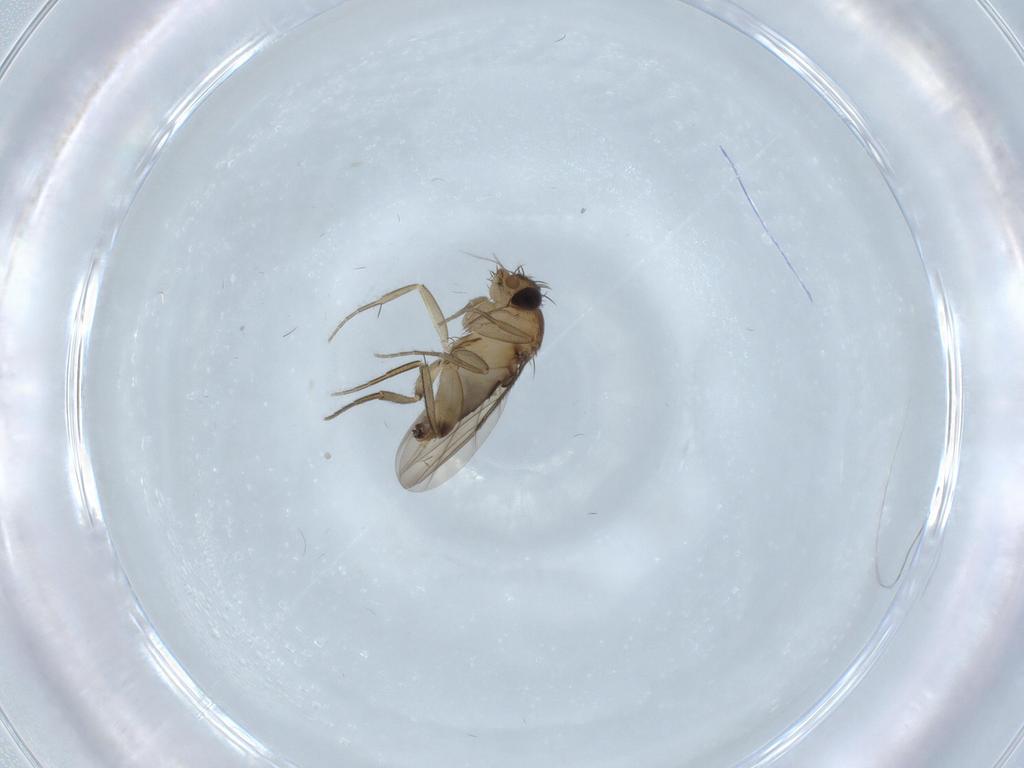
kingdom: Animalia
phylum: Arthropoda
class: Insecta
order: Diptera
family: Phoridae
